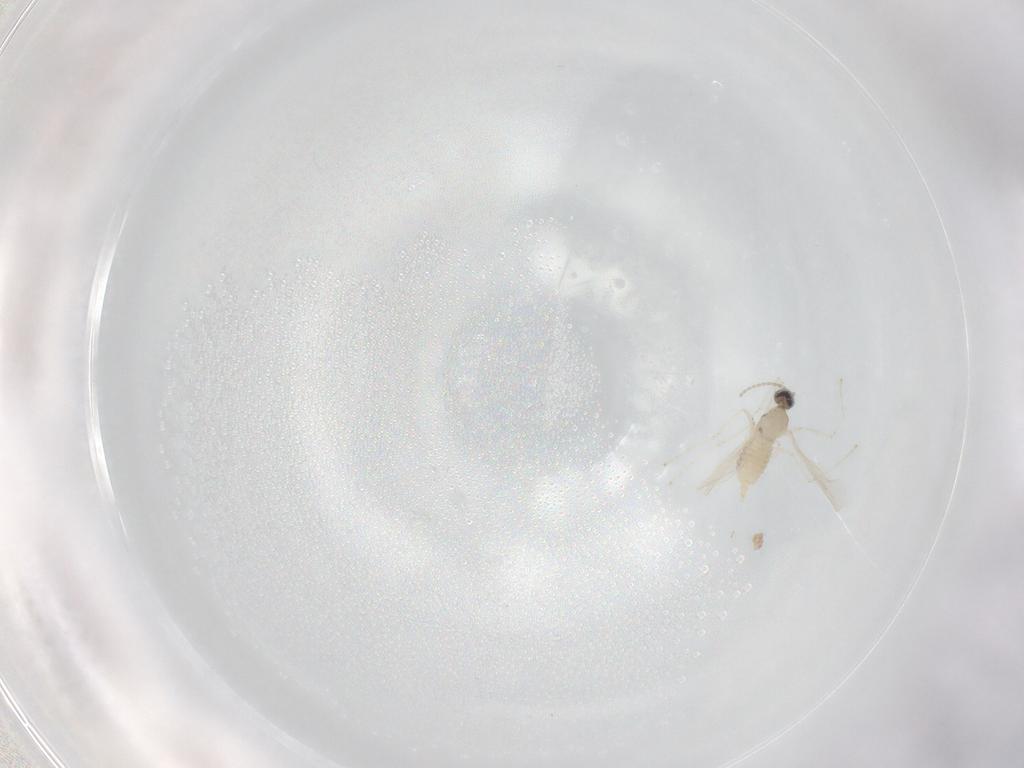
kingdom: Animalia
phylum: Arthropoda
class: Insecta
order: Diptera
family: Cecidomyiidae
